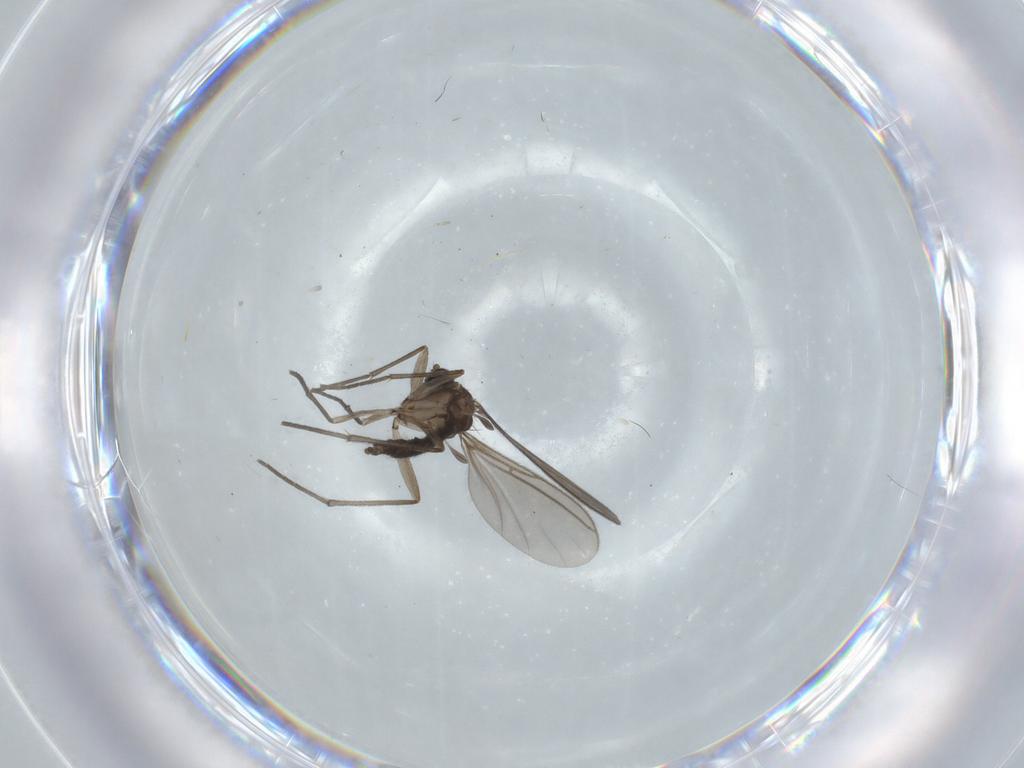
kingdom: Animalia
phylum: Arthropoda
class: Insecta
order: Diptera
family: Sciaridae
